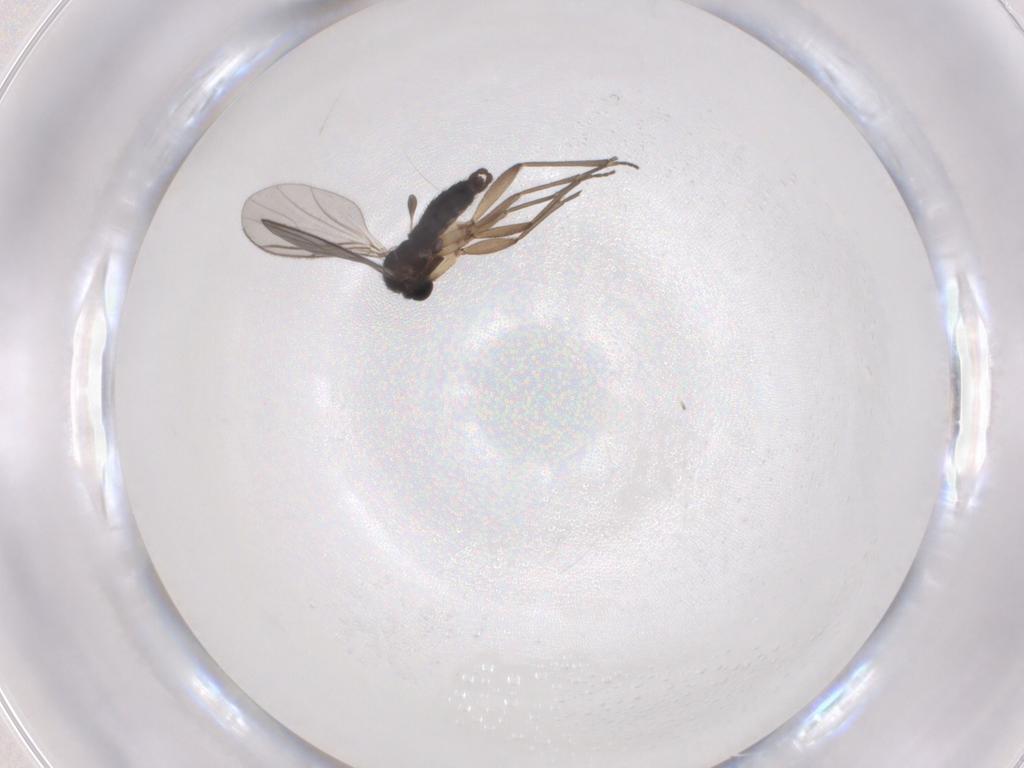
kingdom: Animalia
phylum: Arthropoda
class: Insecta
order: Diptera
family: Sciaridae
